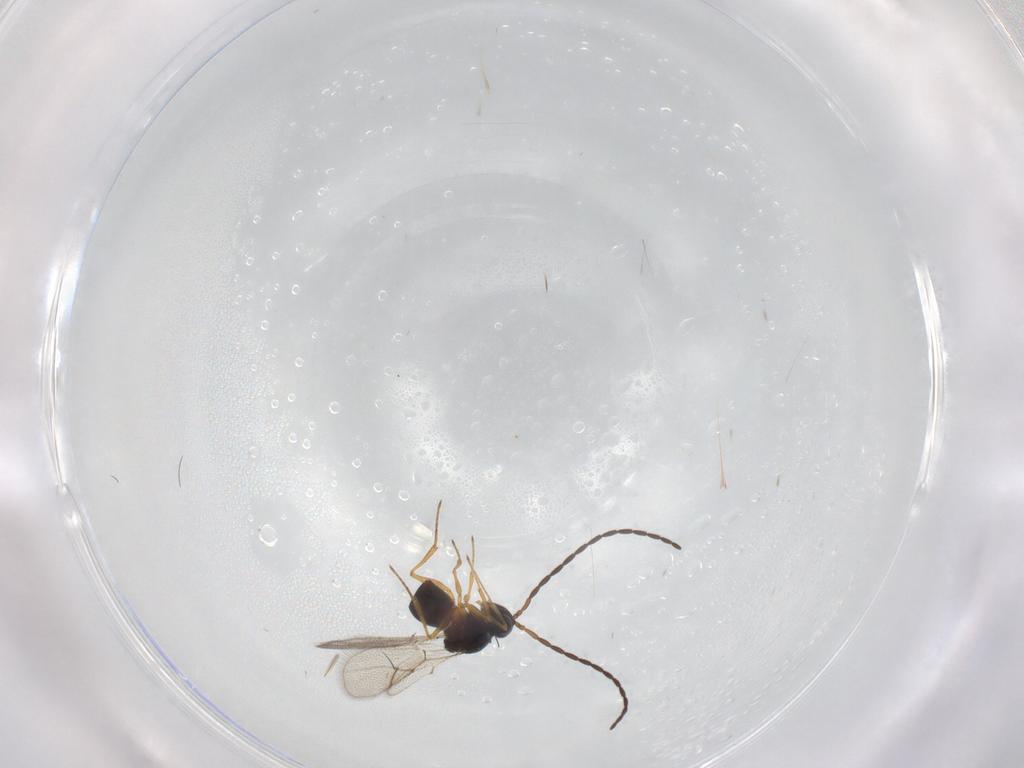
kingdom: Animalia
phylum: Arthropoda
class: Insecta
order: Hymenoptera
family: Figitidae
